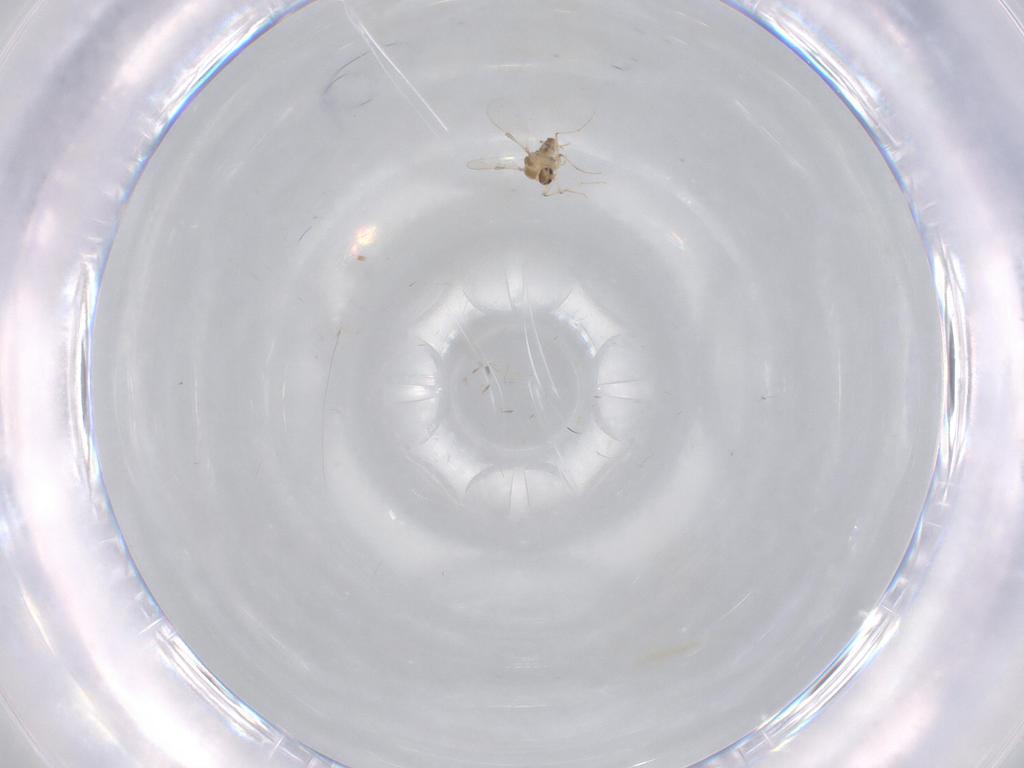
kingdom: Animalia
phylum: Arthropoda
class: Insecta
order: Diptera
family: Chironomidae
